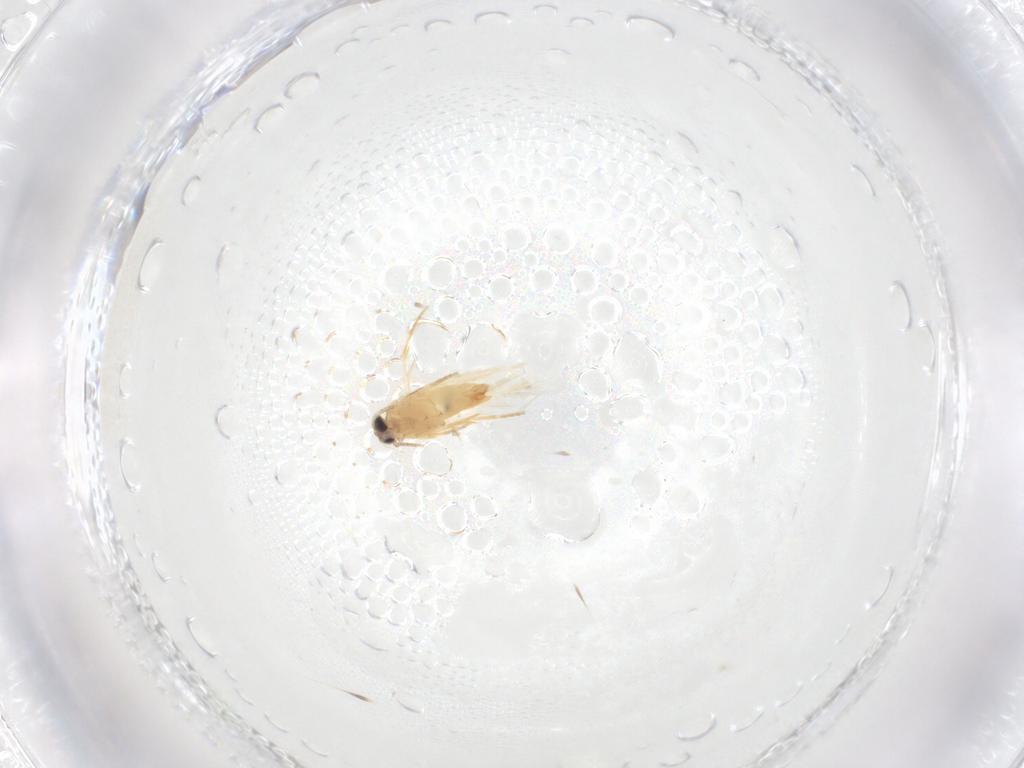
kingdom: Animalia
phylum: Arthropoda
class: Insecta
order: Lepidoptera
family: Crambidae
